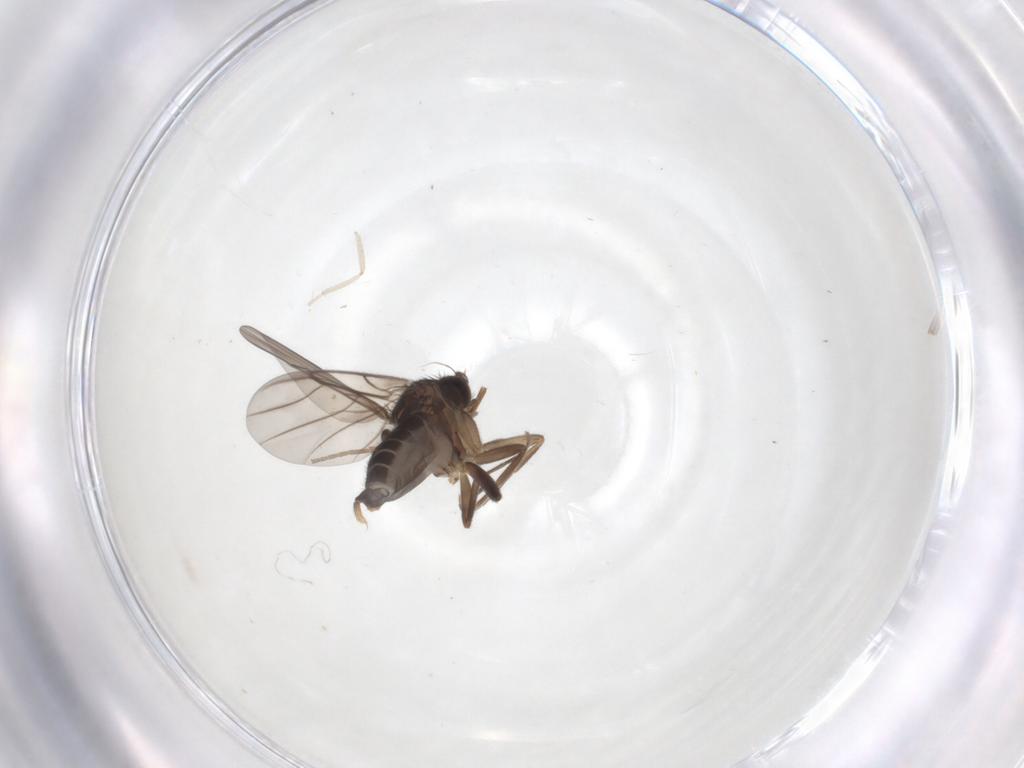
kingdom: Animalia
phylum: Arthropoda
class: Insecta
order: Diptera
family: Cecidomyiidae
